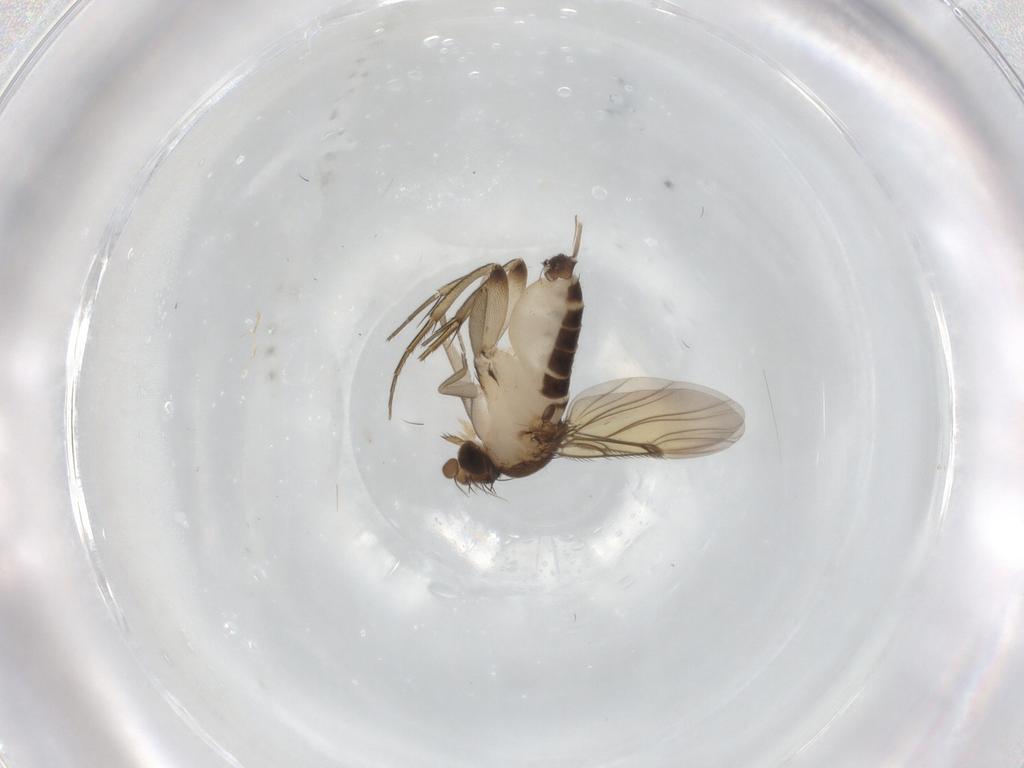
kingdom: Animalia
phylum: Arthropoda
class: Insecta
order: Diptera
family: Phoridae
